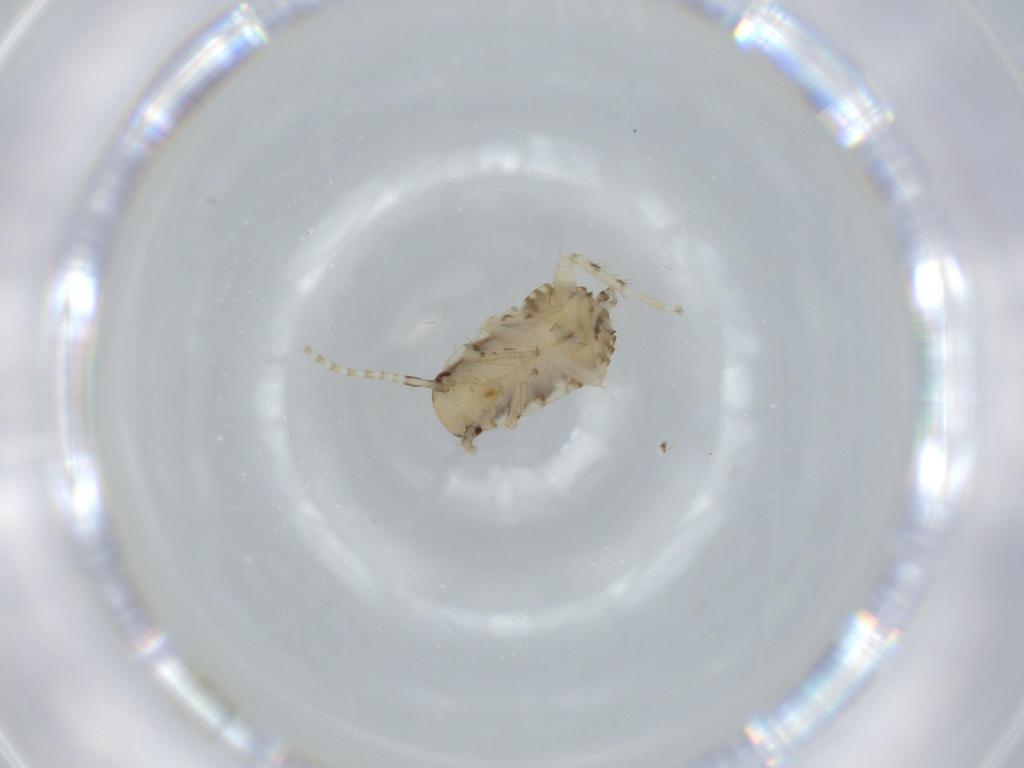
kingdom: Animalia
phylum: Arthropoda
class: Insecta
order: Blattodea
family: Ectobiidae
